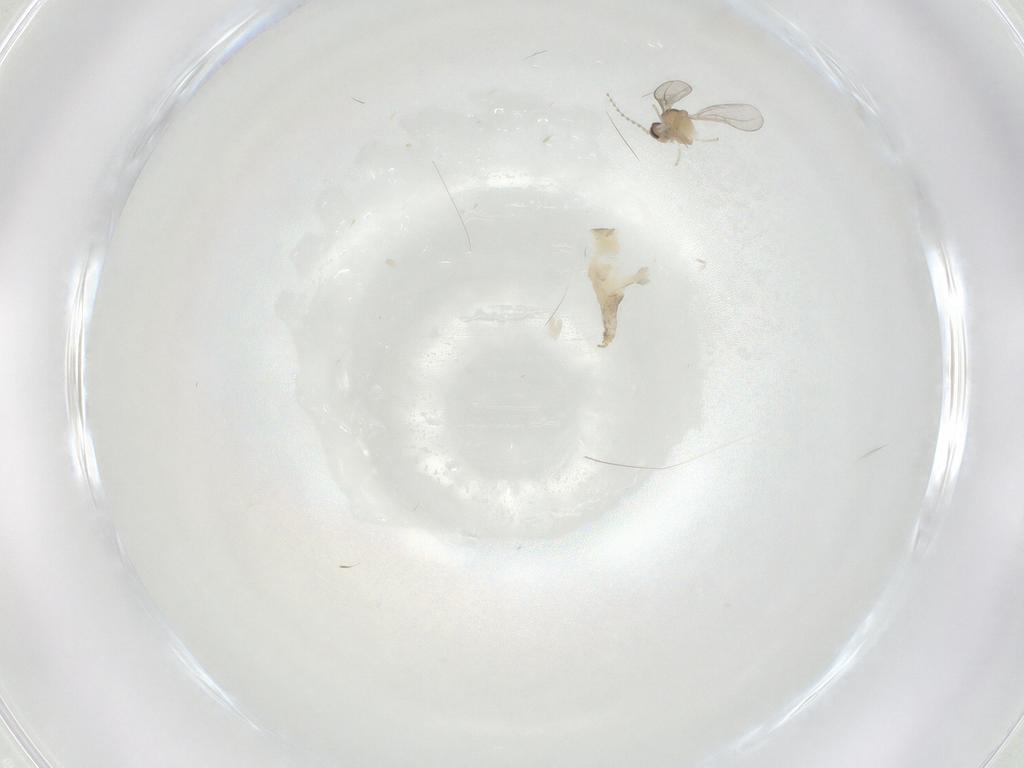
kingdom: Animalia
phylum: Arthropoda
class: Insecta
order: Diptera
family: Cecidomyiidae
